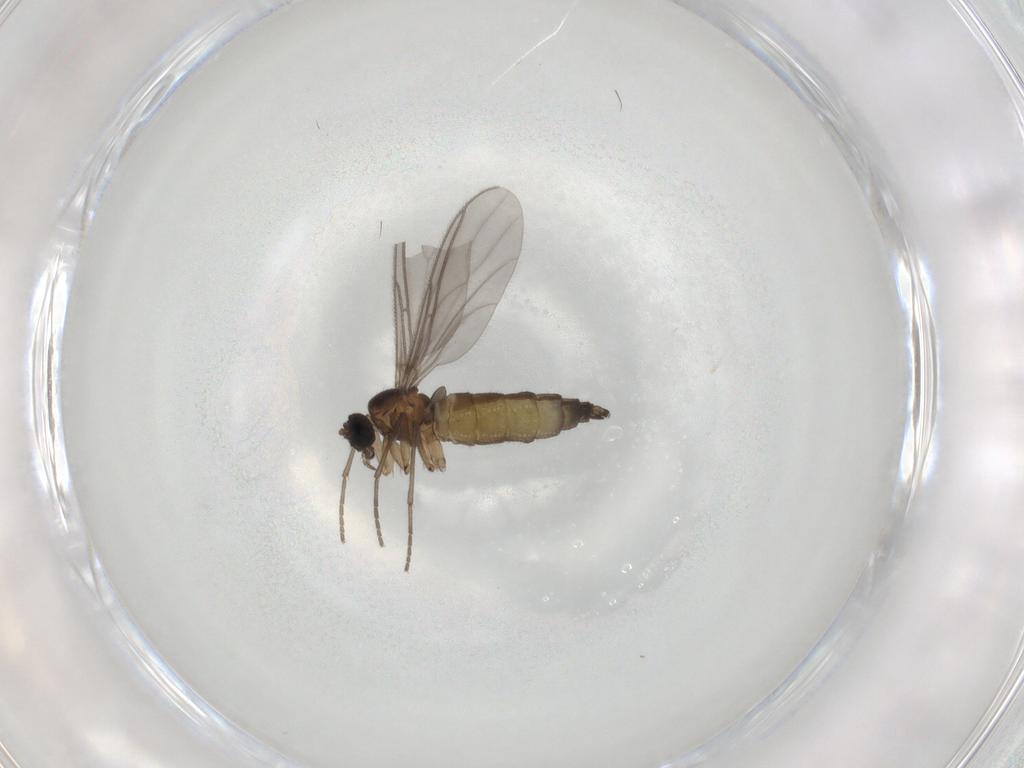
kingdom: Animalia
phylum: Arthropoda
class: Insecta
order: Diptera
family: Sciaridae
